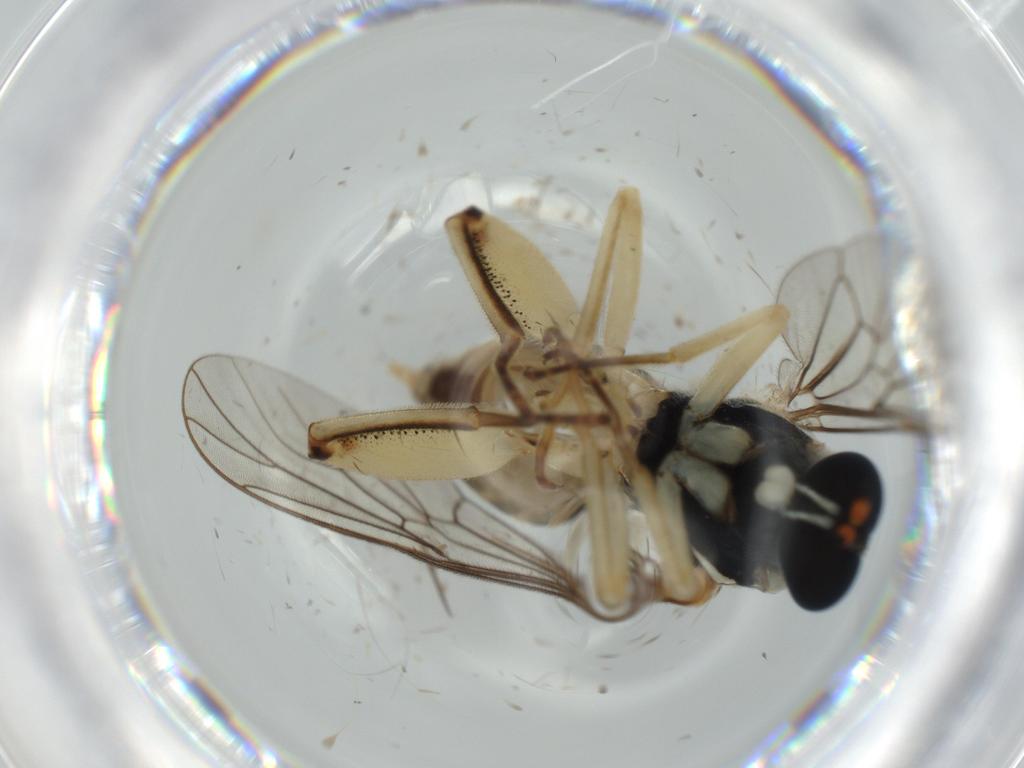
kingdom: Animalia
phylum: Arthropoda
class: Insecta
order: Diptera
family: Drosophilidae
